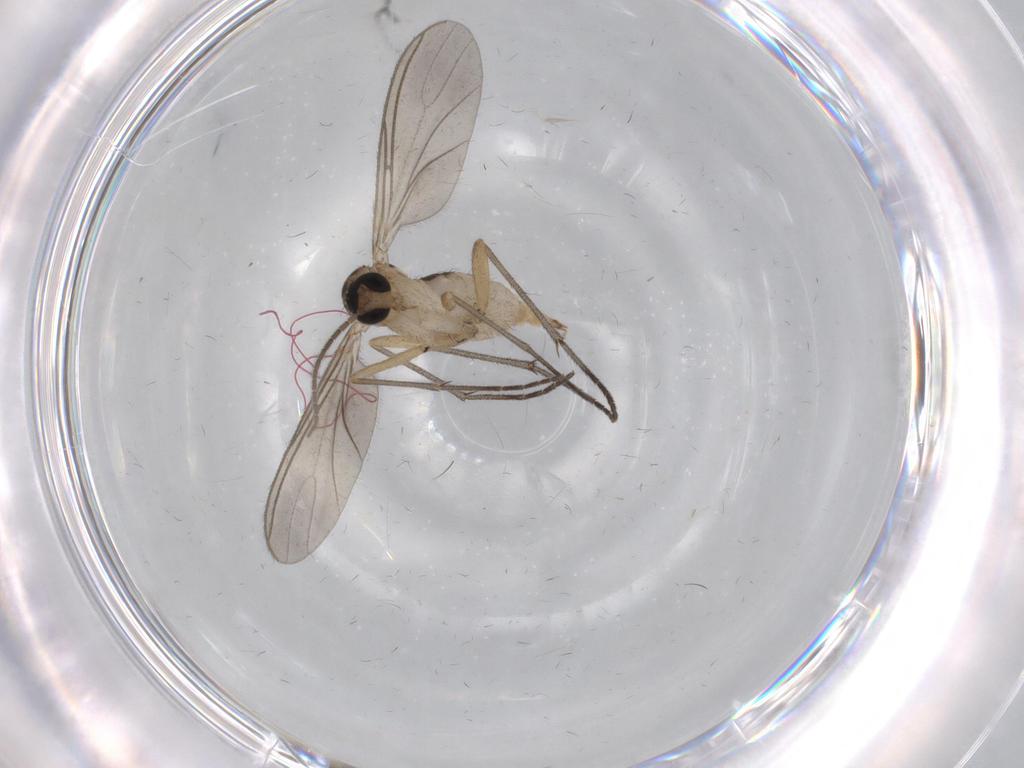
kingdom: Animalia
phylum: Arthropoda
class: Insecta
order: Diptera
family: Sciaridae
